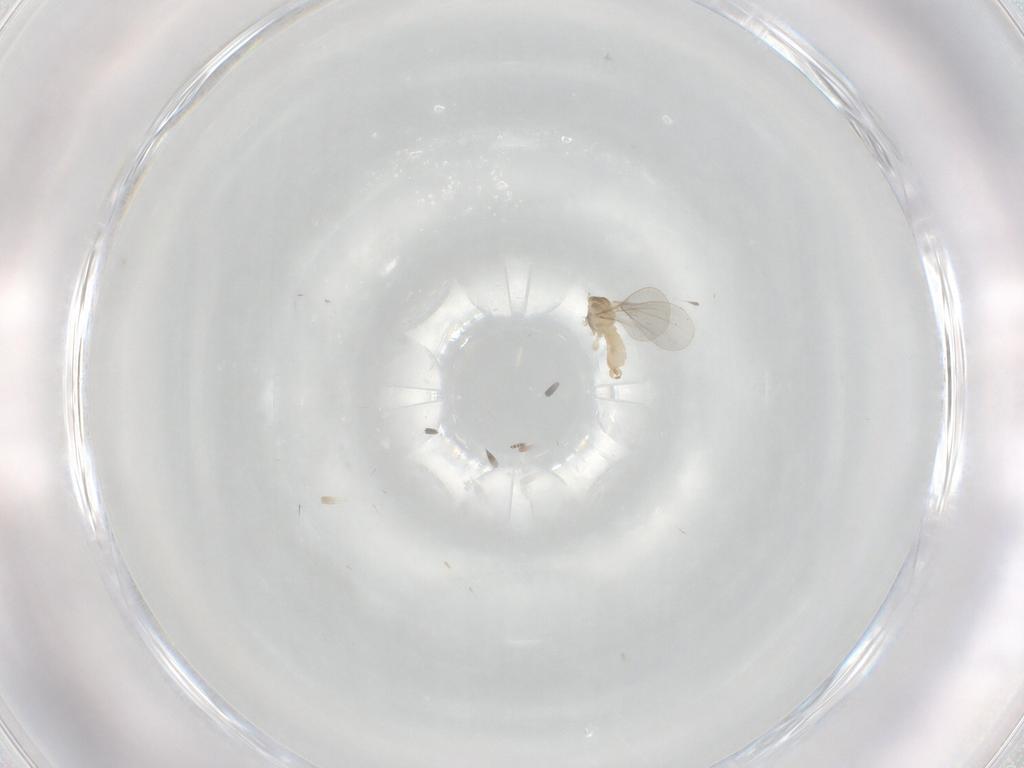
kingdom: Animalia
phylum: Arthropoda
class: Insecta
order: Diptera
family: Cecidomyiidae
